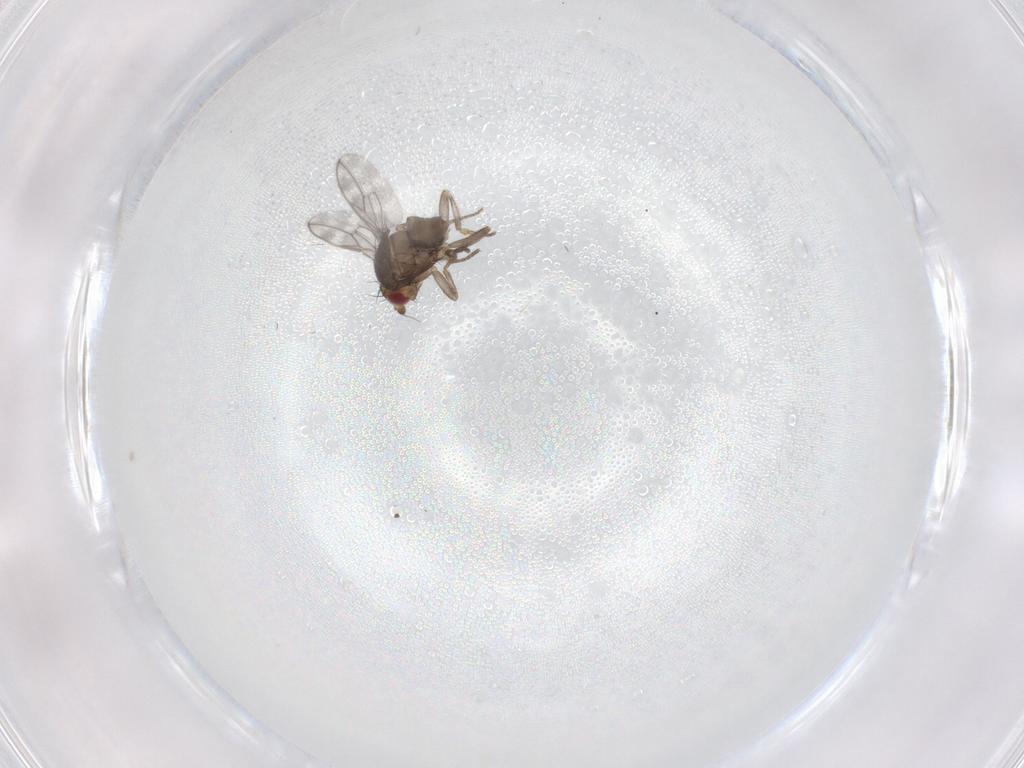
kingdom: Animalia
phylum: Arthropoda
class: Insecta
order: Diptera
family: Sphaeroceridae
